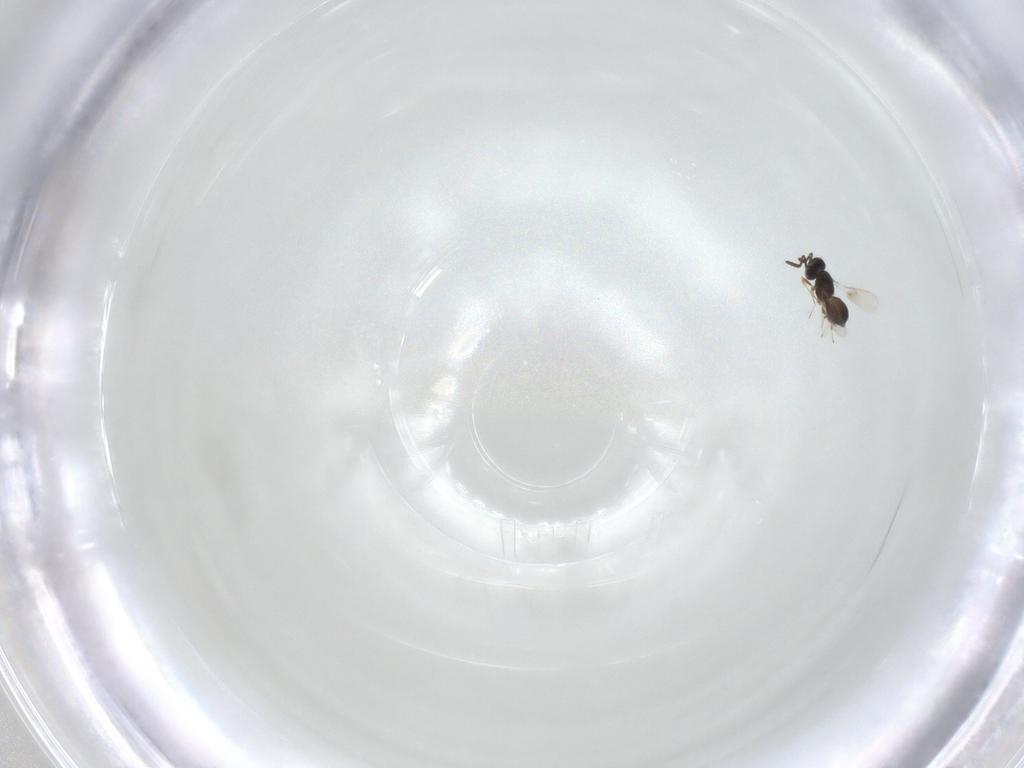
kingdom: Animalia
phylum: Arthropoda
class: Insecta
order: Hymenoptera
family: Scelionidae
